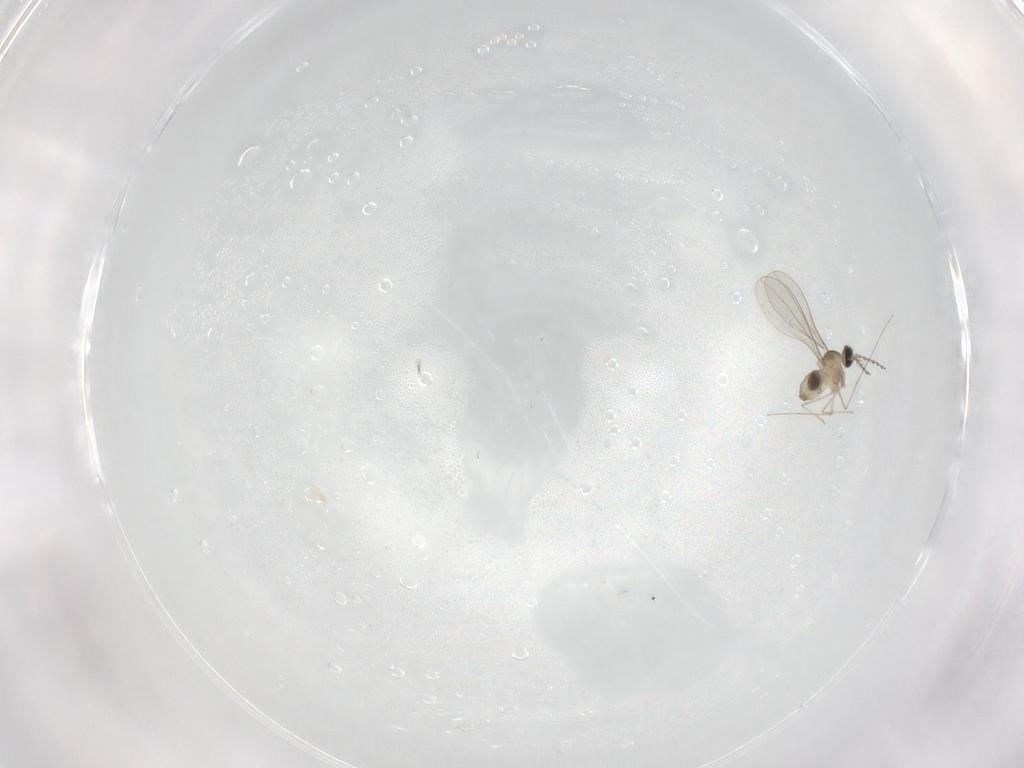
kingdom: Animalia
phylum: Arthropoda
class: Insecta
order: Diptera
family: Cecidomyiidae
